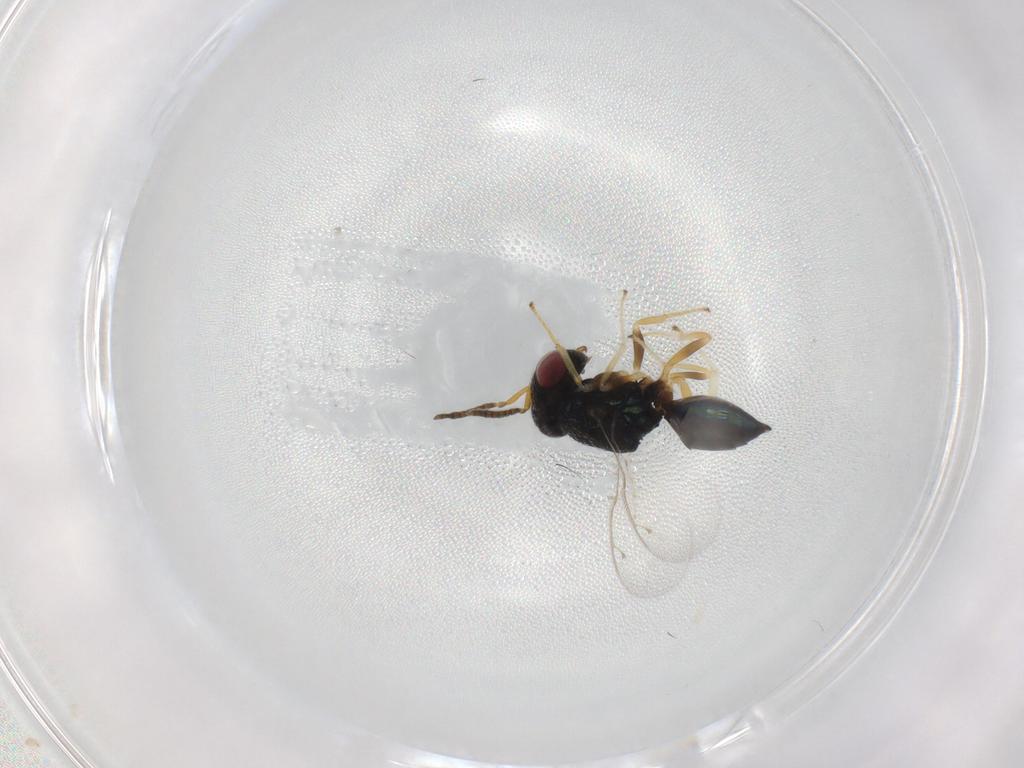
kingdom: Animalia
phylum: Arthropoda
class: Insecta
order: Hymenoptera
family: Eupelmidae
